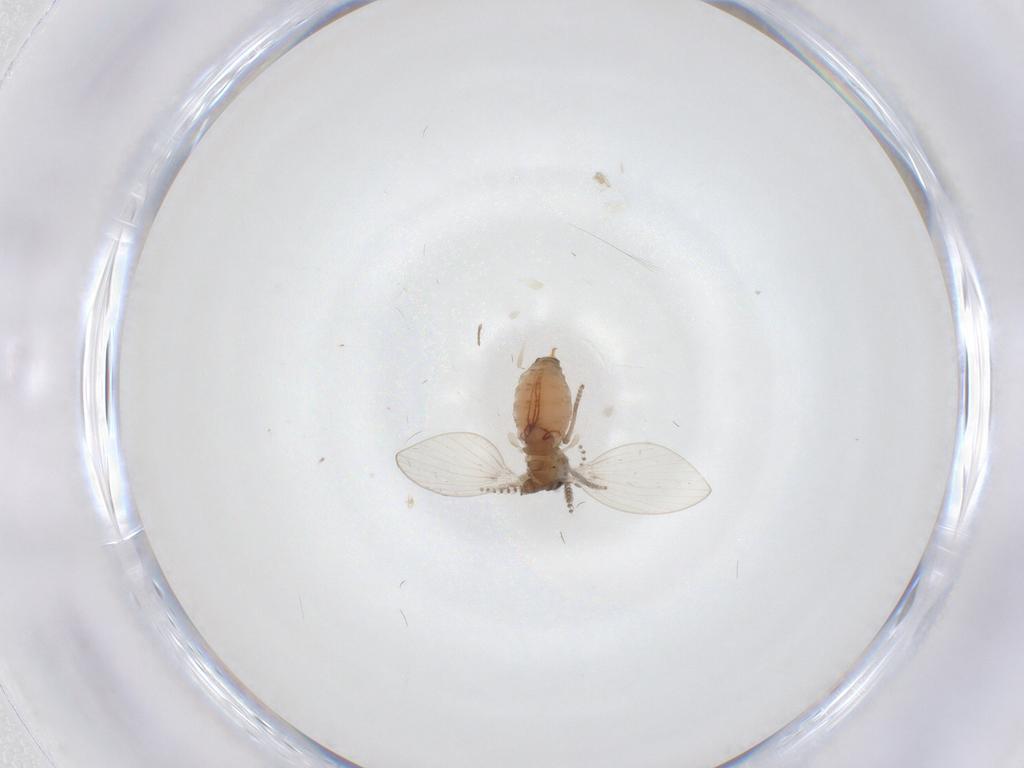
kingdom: Animalia
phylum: Arthropoda
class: Insecta
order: Diptera
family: Psychodidae
